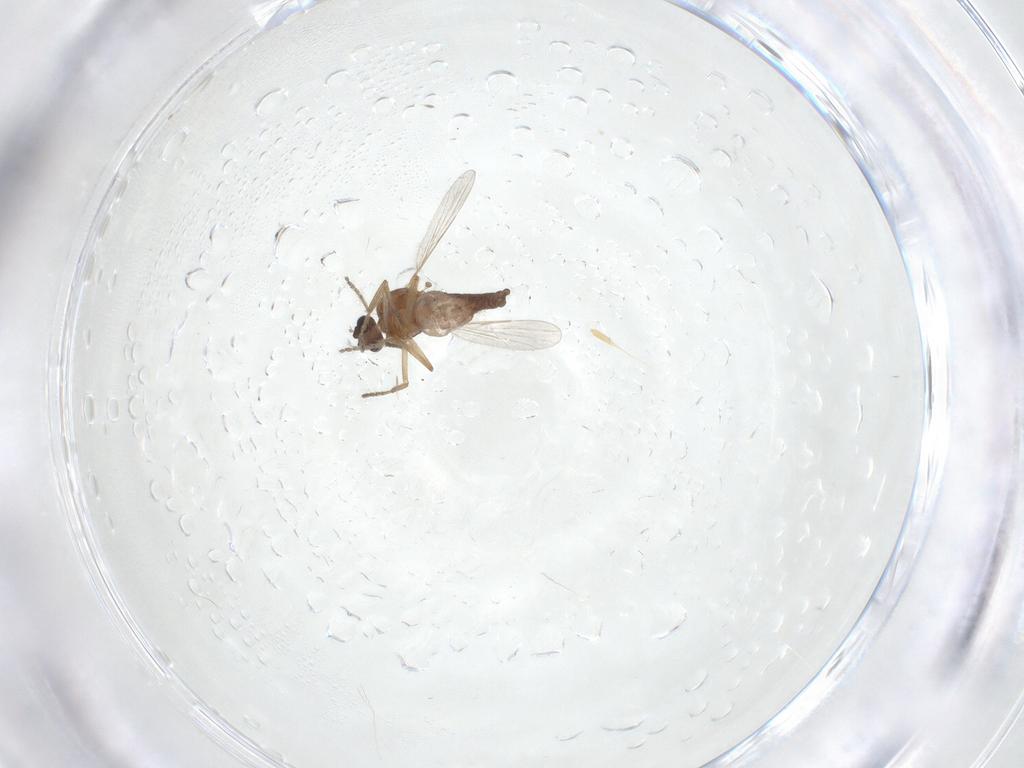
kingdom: Animalia
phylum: Arthropoda
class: Insecta
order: Diptera
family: Ceratopogonidae
